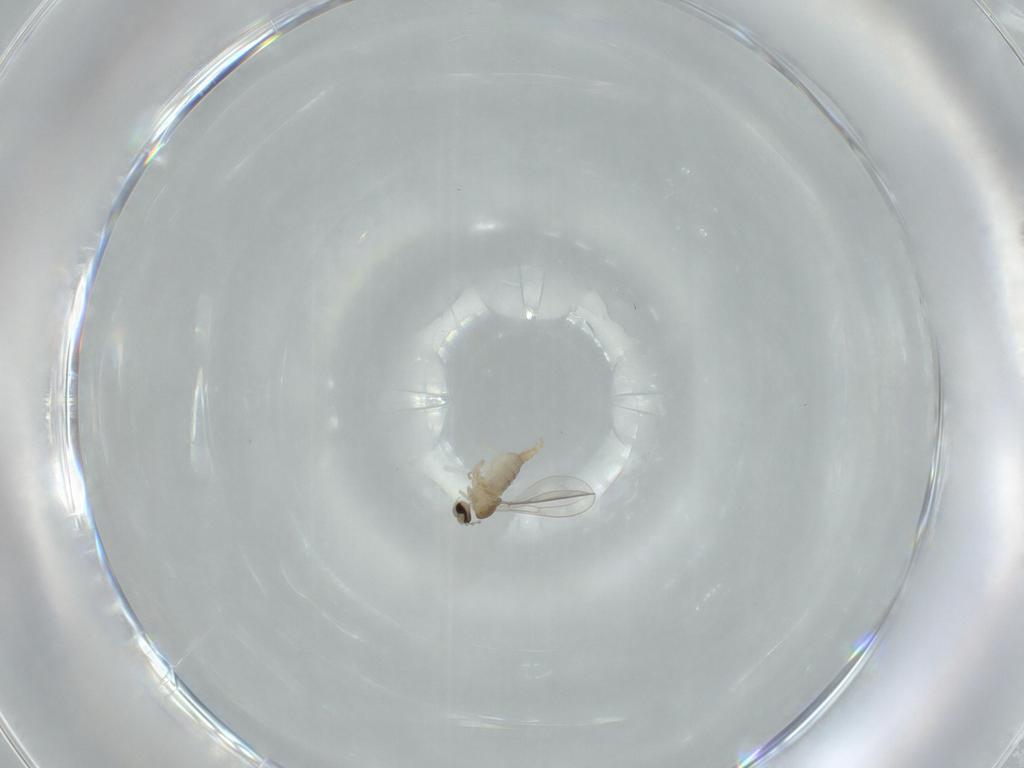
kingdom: Animalia
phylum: Arthropoda
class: Insecta
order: Diptera
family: Cecidomyiidae
